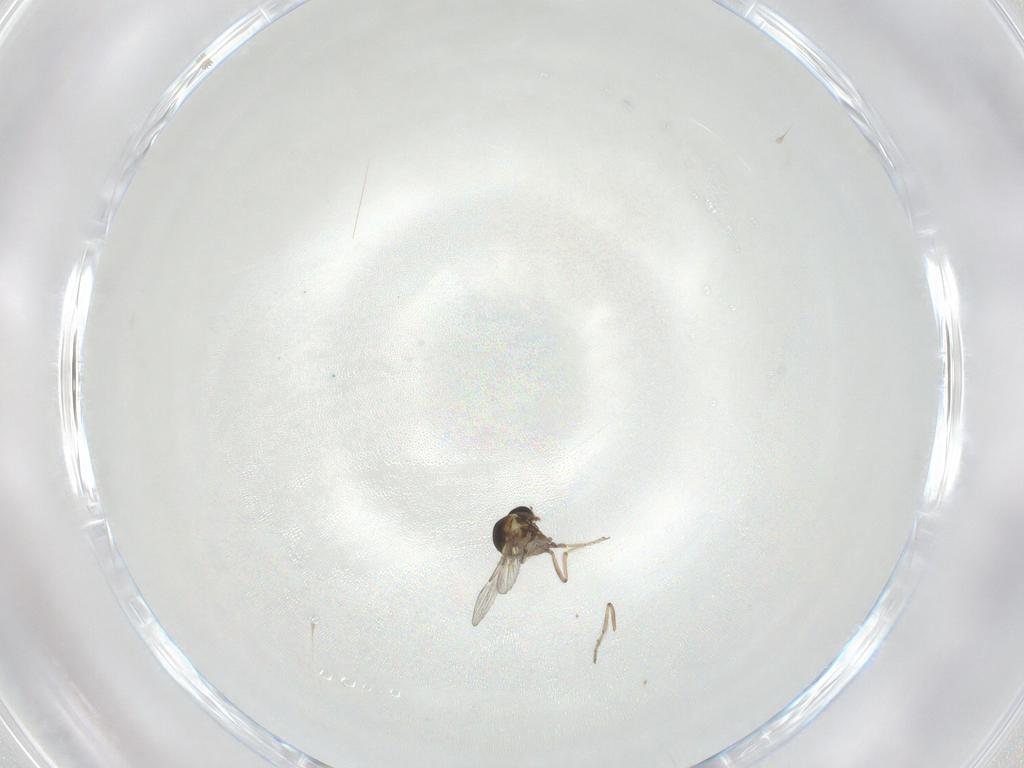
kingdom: Animalia
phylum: Arthropoda
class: Insecta
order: Diptera
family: Ceratopogonidae
